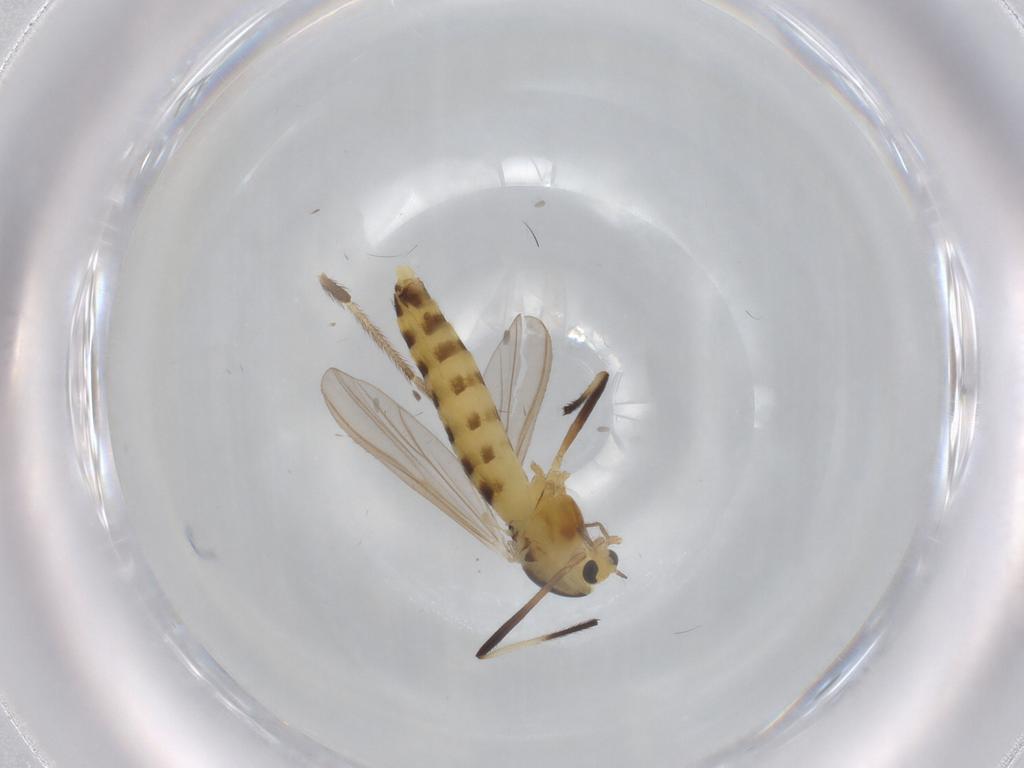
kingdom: Animalia
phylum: Arthropoda
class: Insecta
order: Diptera
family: Chironomidae
